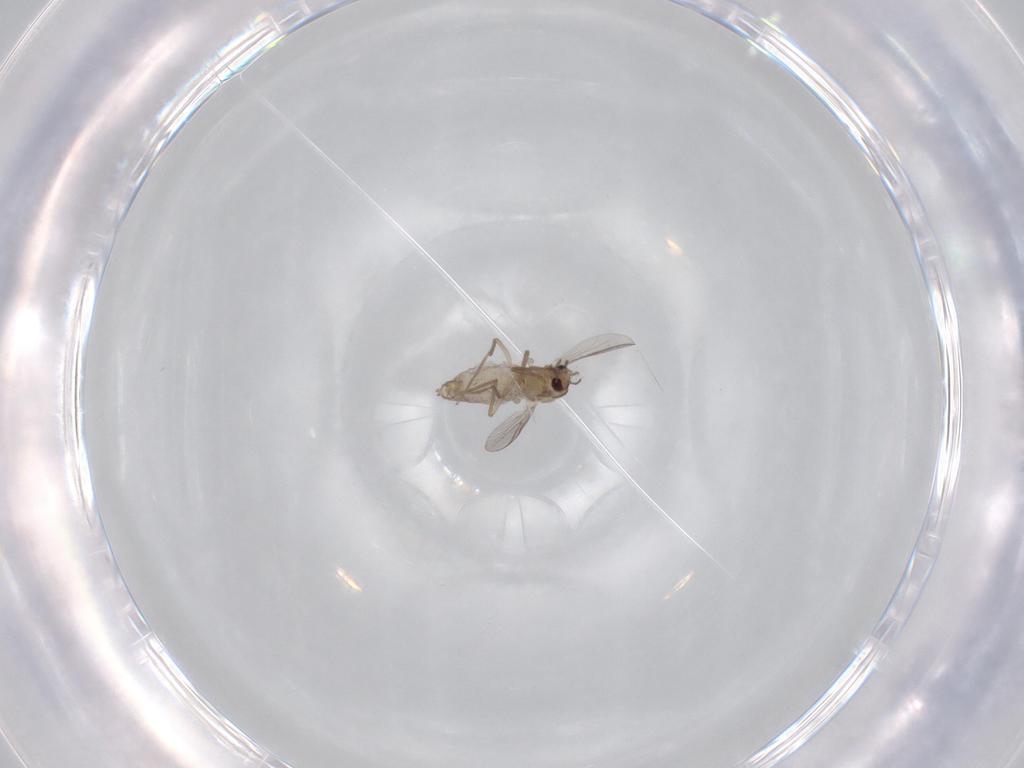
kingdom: Animalia
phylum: Arthropoda
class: Insecta
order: Diptera
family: Chironomidae
